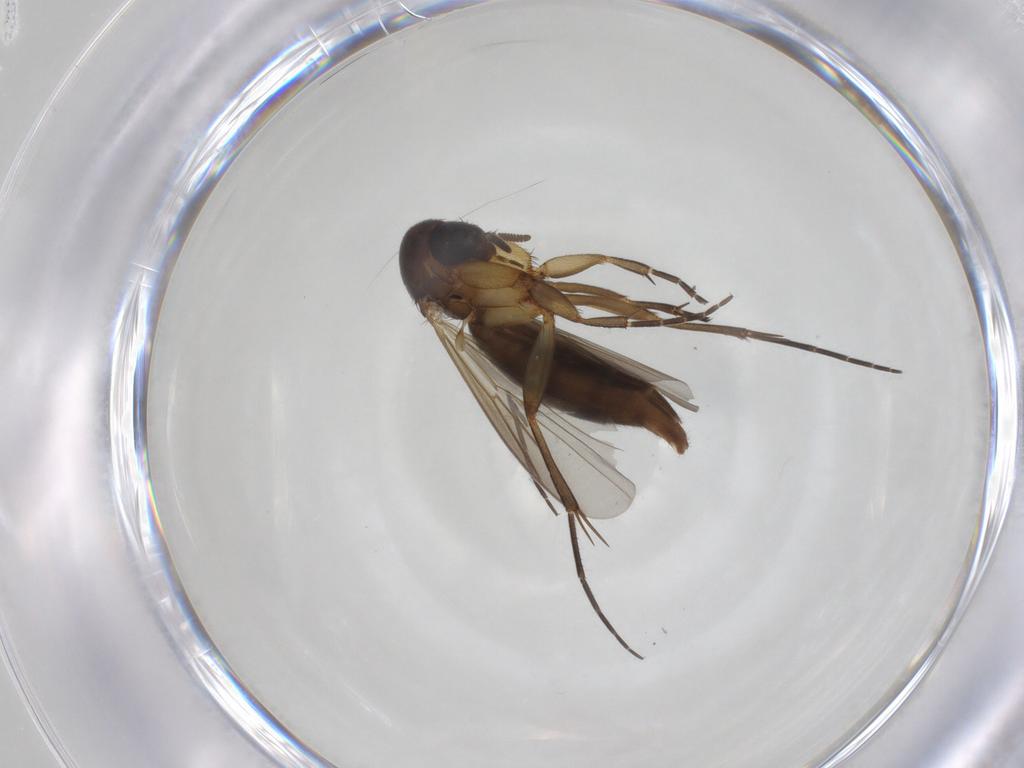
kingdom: Animalia
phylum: Arthropoda
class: Insecta
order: Diptera
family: Mycetophilidae
